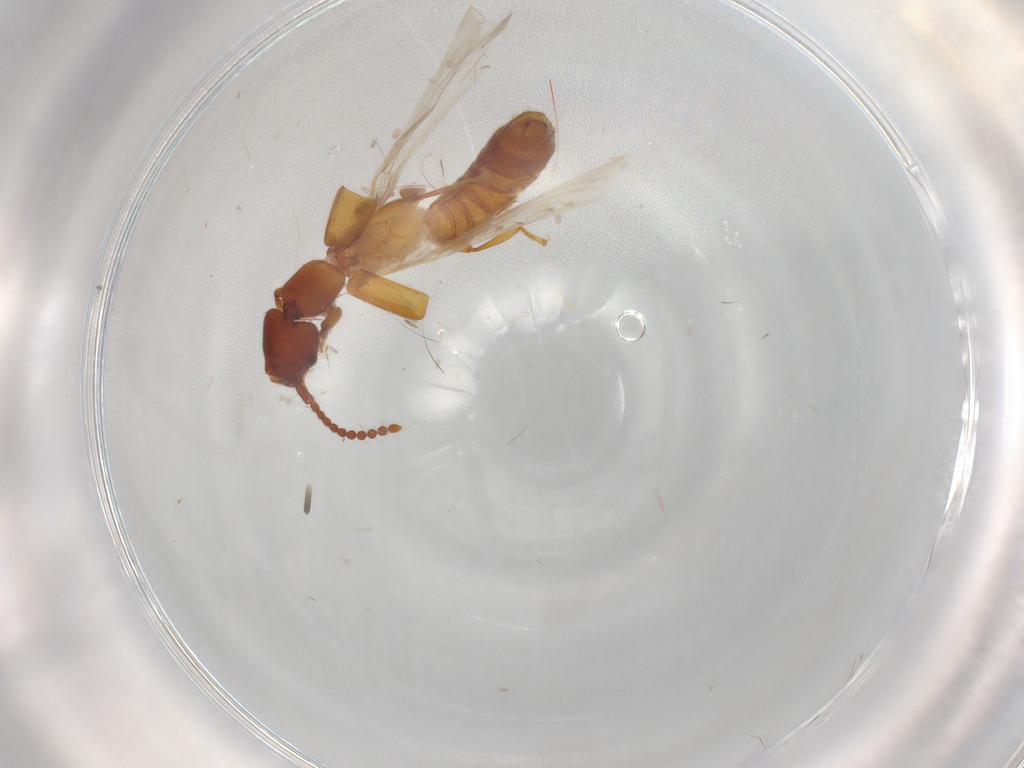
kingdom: Animalia
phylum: Arthropoda
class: Insecta
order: Coleoptera
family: Staphylinidae
